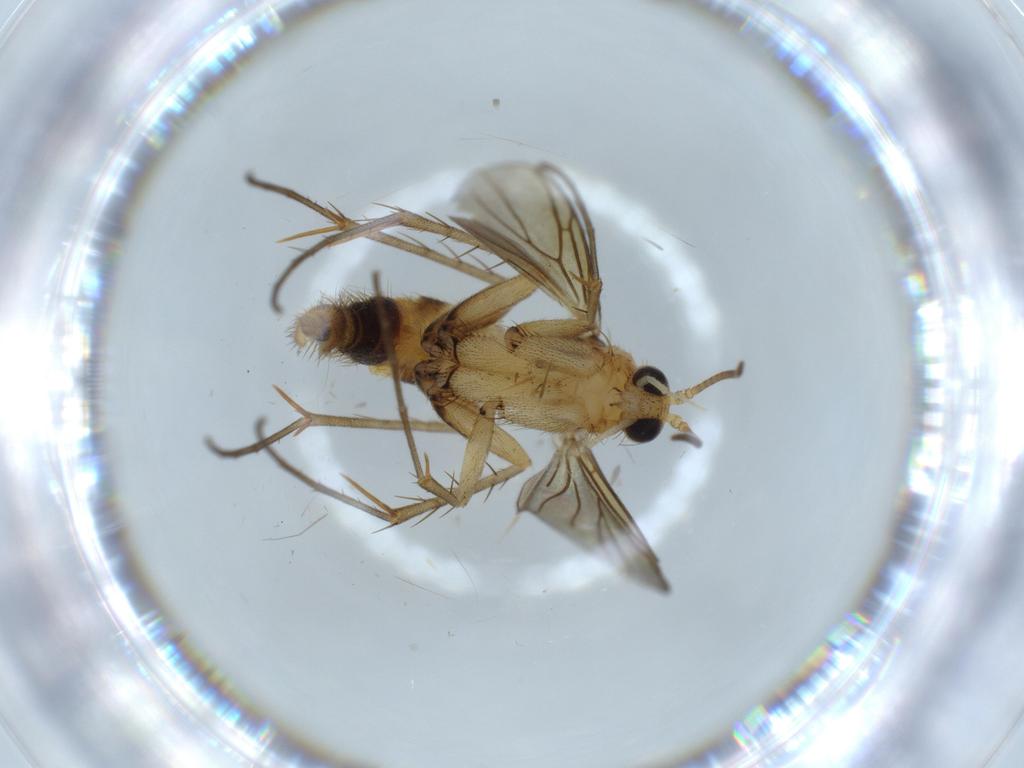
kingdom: Animalia
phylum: Arthropoda
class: Insecta
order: Diptera
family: Mycetophilidae
